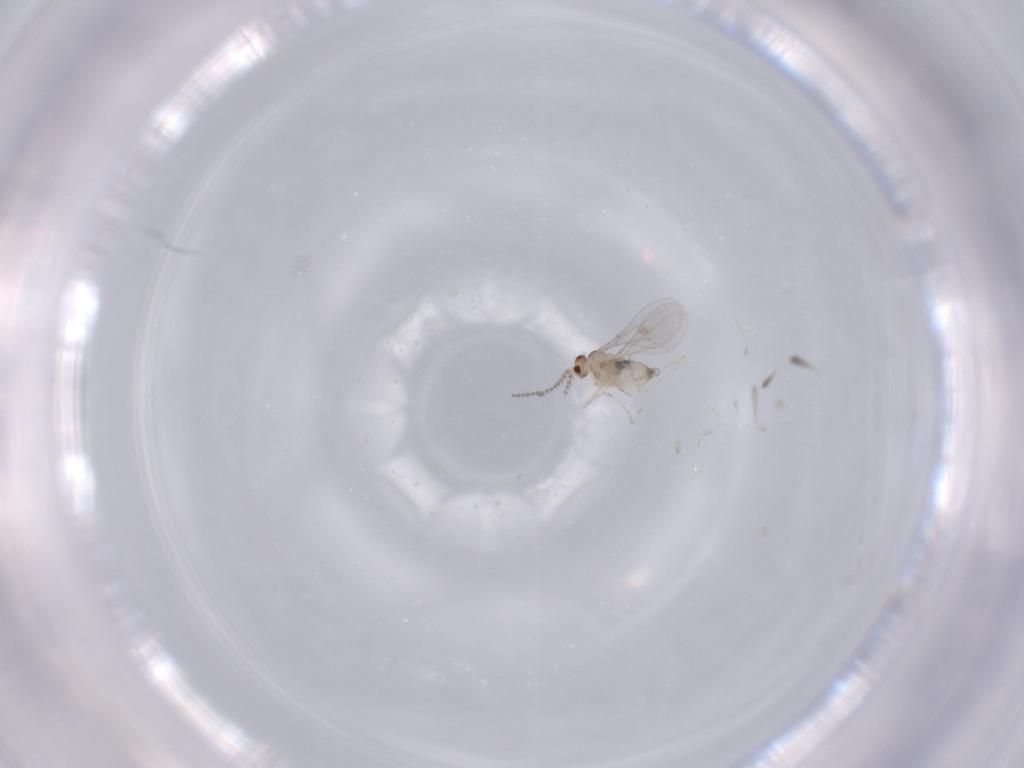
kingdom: Animalia
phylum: Arthropoda
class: Insecta
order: Diptera
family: Cecidomyiidae
